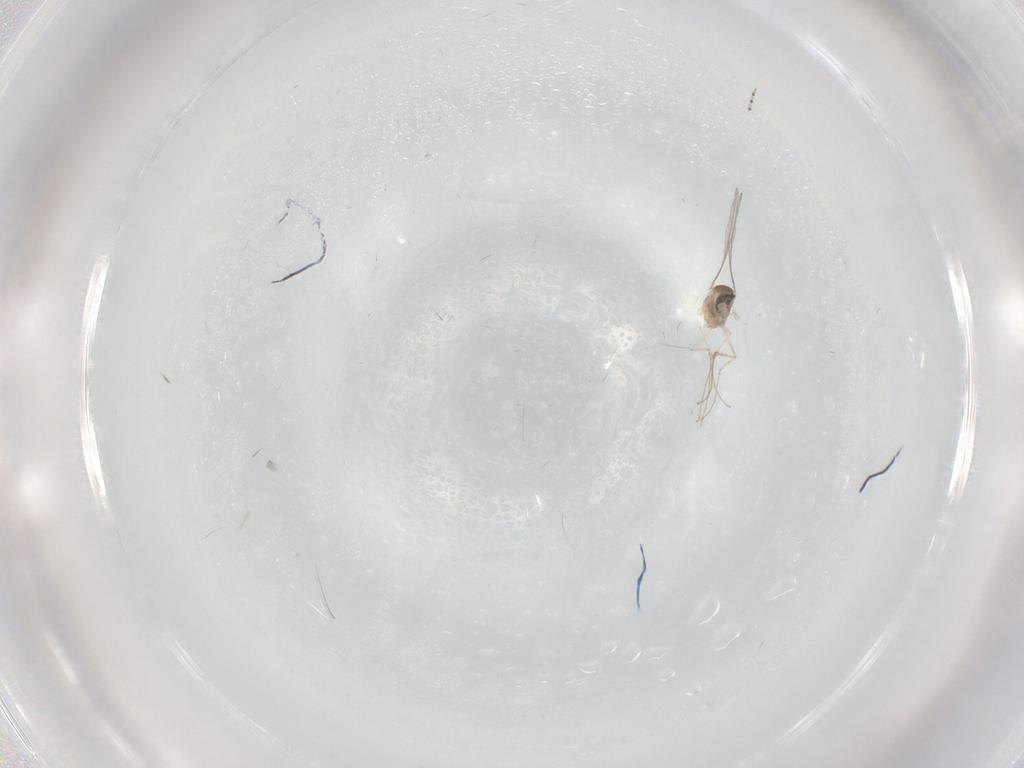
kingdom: Animalia
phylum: Arthropoda
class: Insecta
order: Diptera
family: Cecidomyiidae
